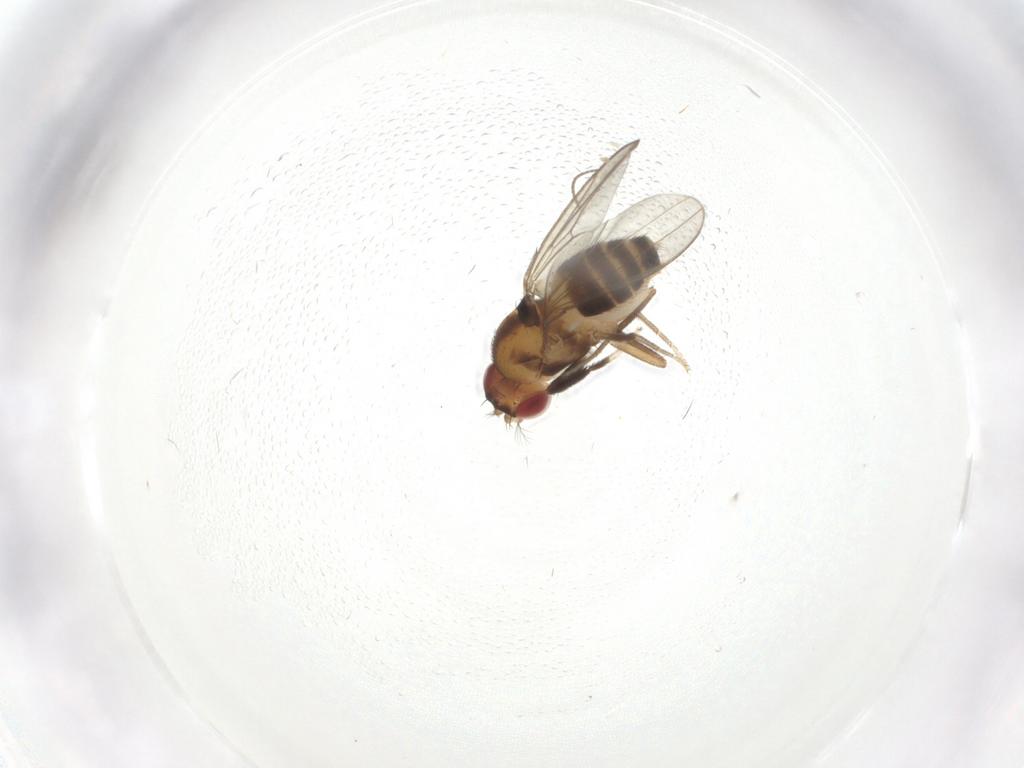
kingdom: Animalia
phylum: Arthropoda
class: Insecta
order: Diptera
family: Drosophilidae
